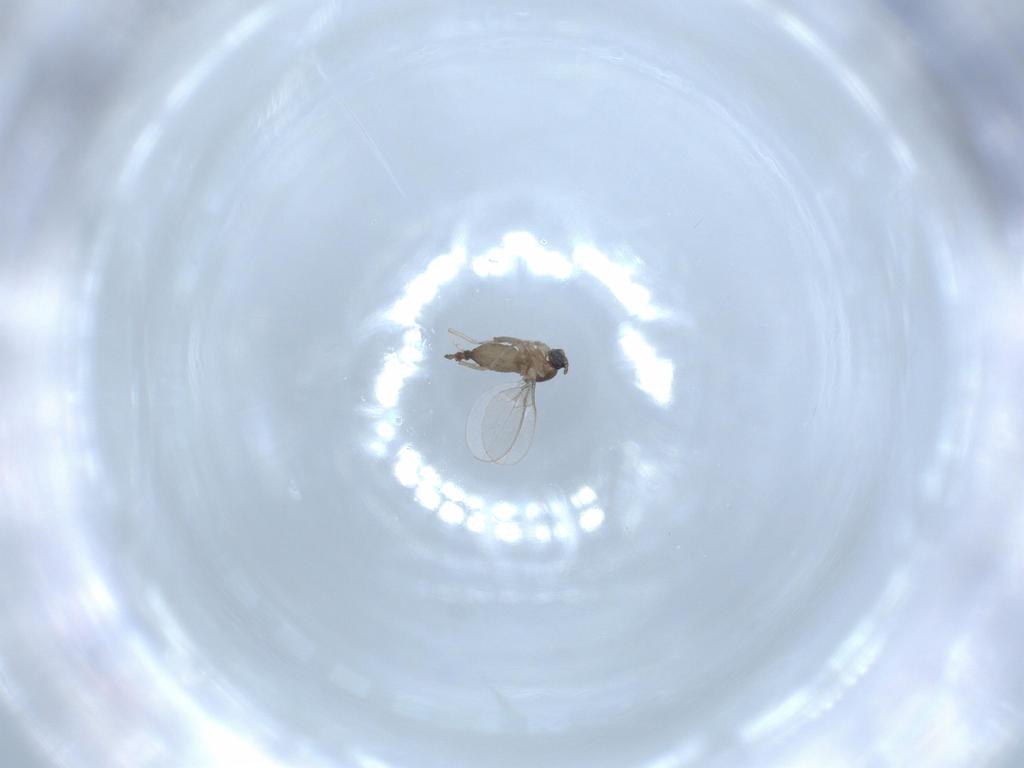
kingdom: Animalia
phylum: Arthropoda
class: Insecta
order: Diptera
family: Cecidomyiidae
